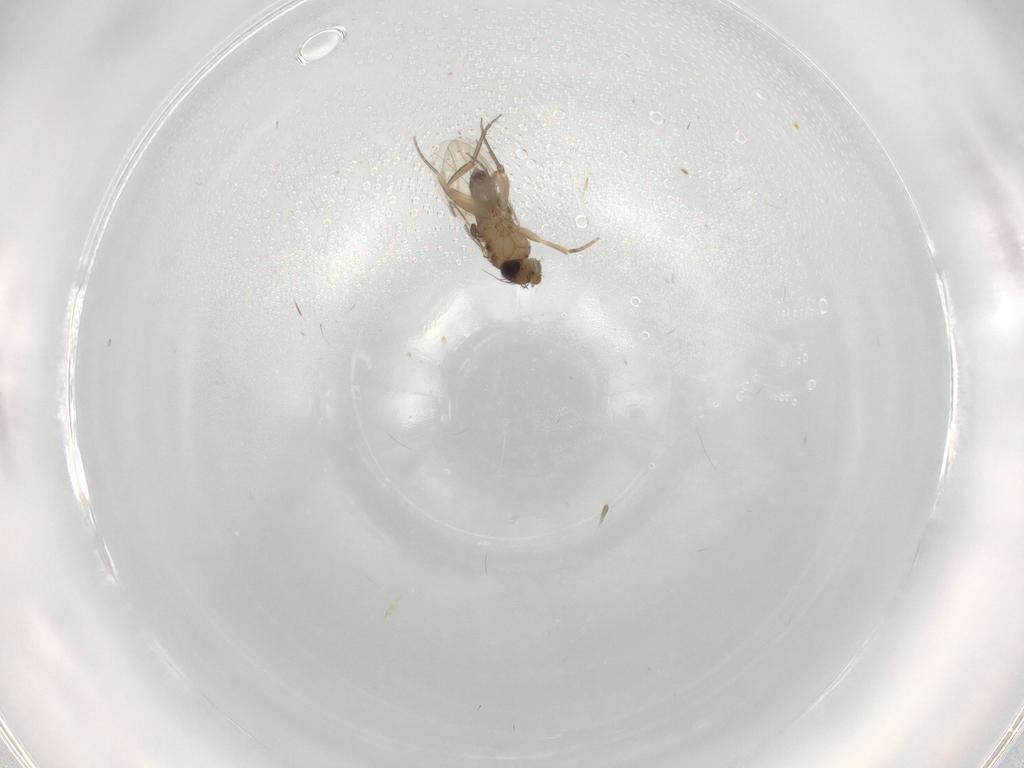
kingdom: Animalia
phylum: Arthropoda
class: Insecta
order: Diptera
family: Phoridae
